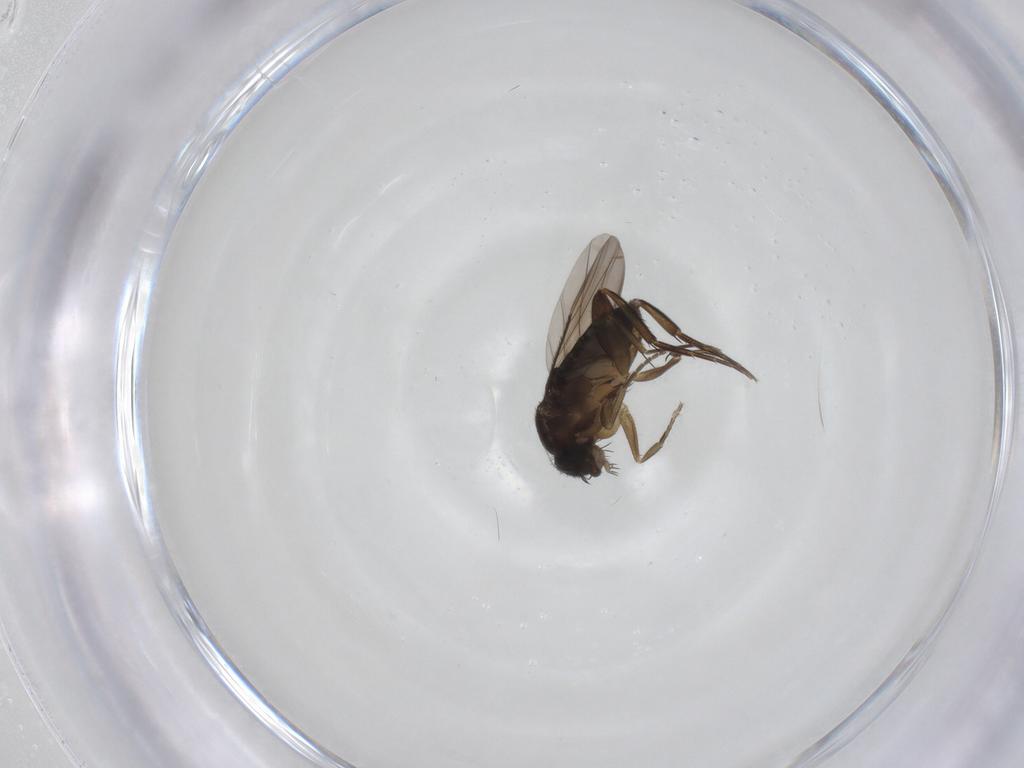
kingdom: Animalia
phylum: Arthropoda
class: Insecta
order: Diptera
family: Phoridae
